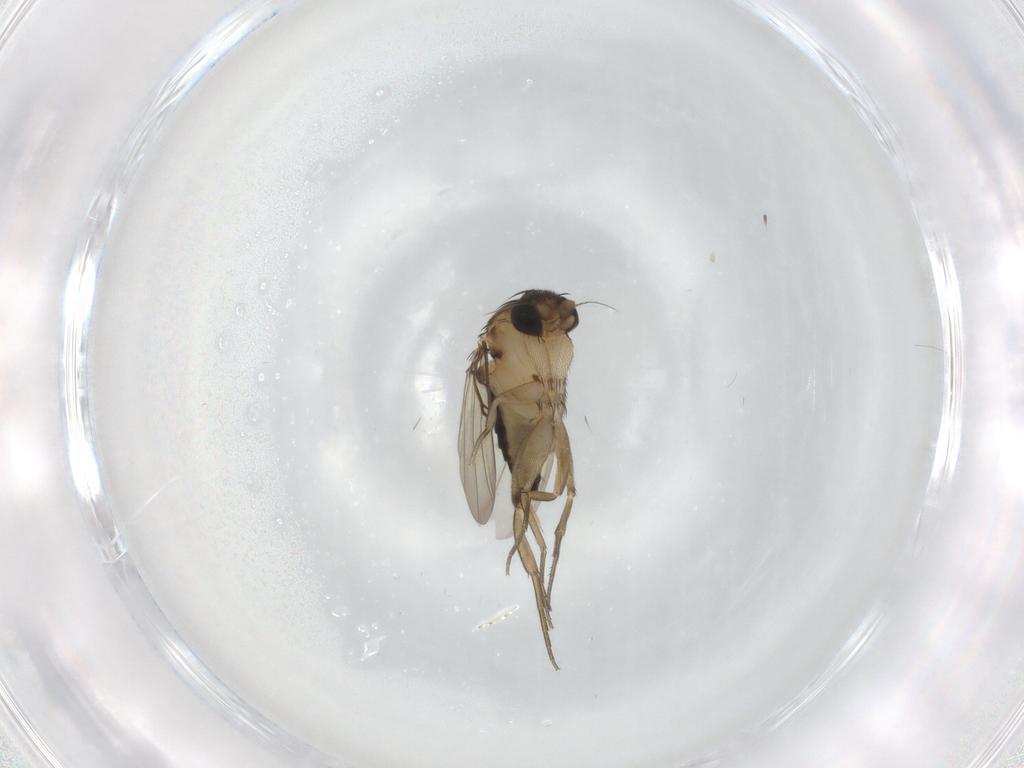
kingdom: Animalia
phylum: Arthropoda
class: Insecta
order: Diptera
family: Phoridae
